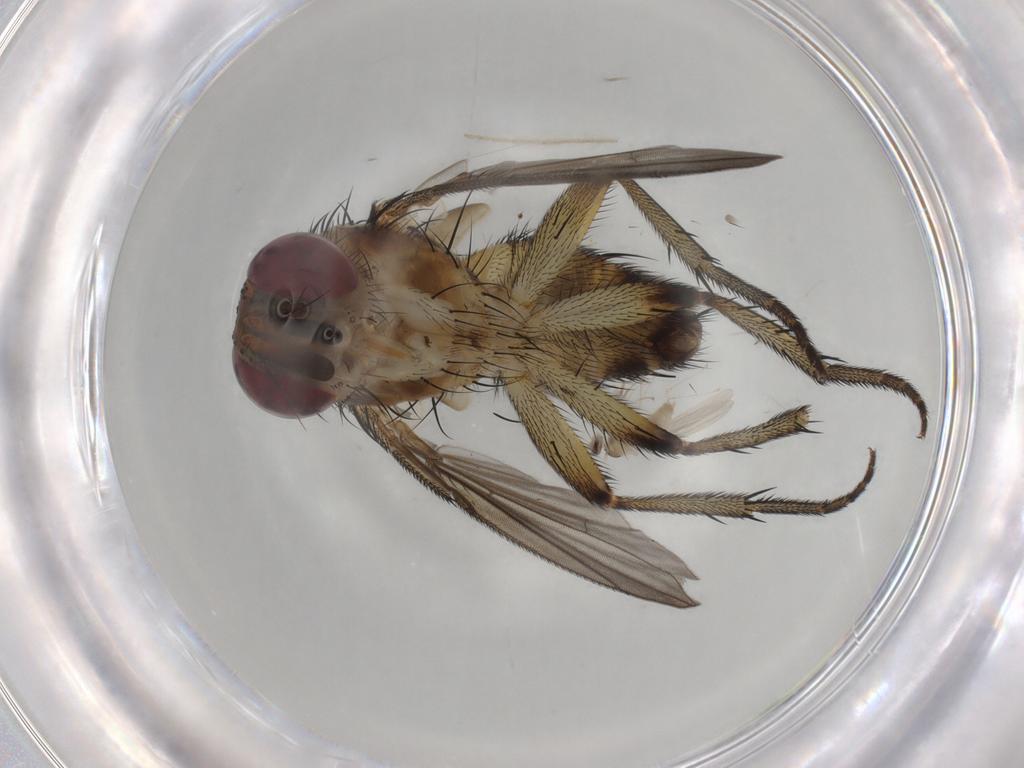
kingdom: Animalia
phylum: Arthropoda
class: Insecta
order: Diptera
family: Tachinidae
